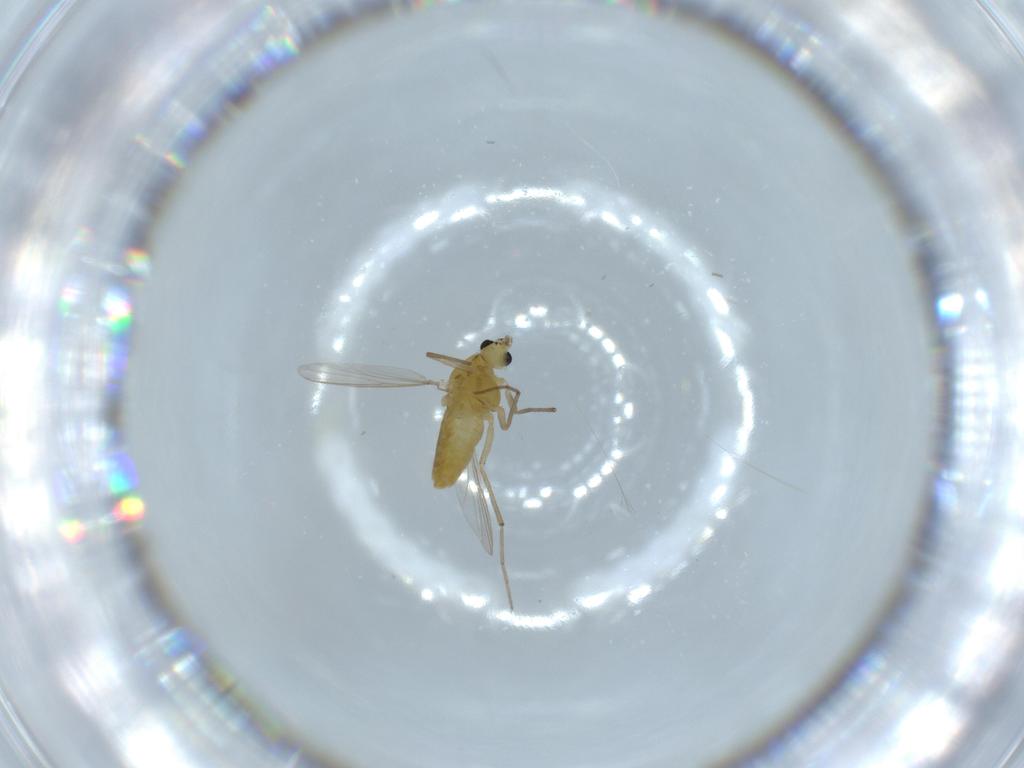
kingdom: Animalia
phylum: Arthropoda
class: Insecta
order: Diptera
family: Chironomidae
